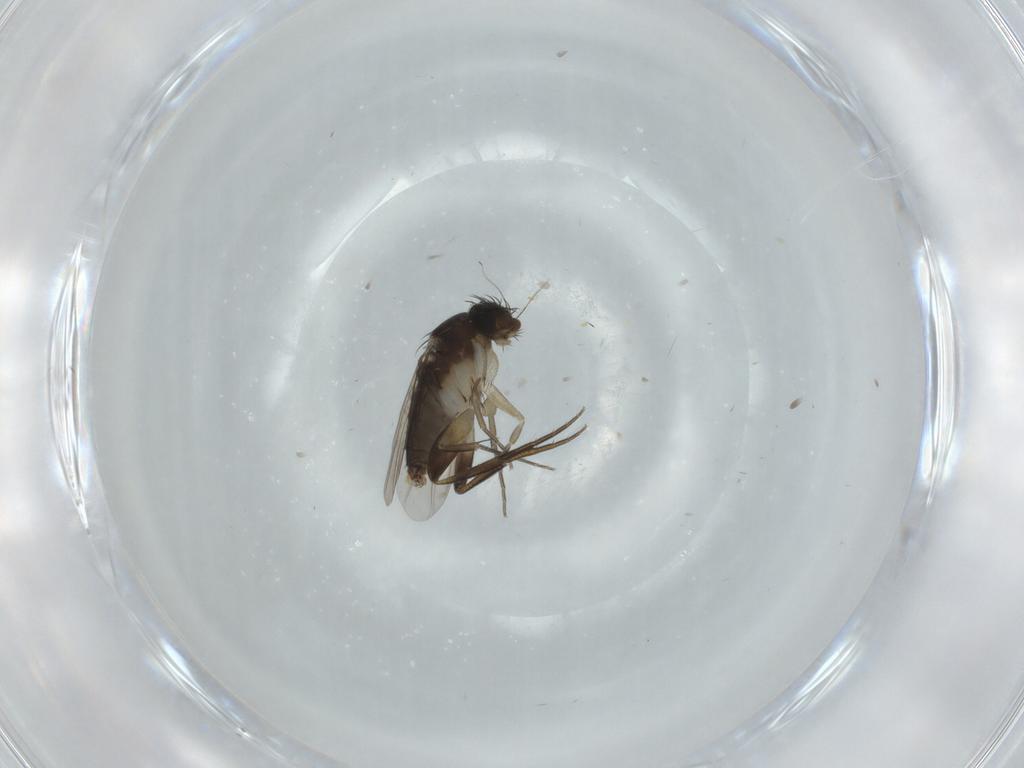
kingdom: Animalia
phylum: Arthropoda
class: Insecta
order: Diptera
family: Phoridae
